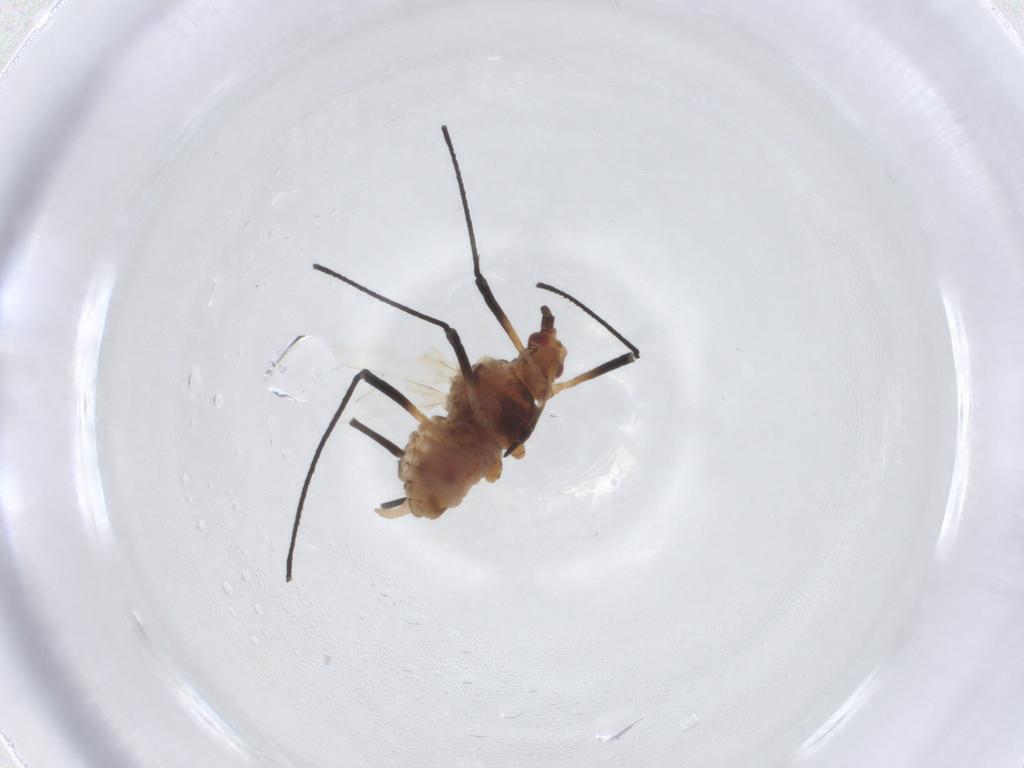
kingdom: Animalia
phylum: Arthropoda
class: Insecta
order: Hemiptera
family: Aphididae
